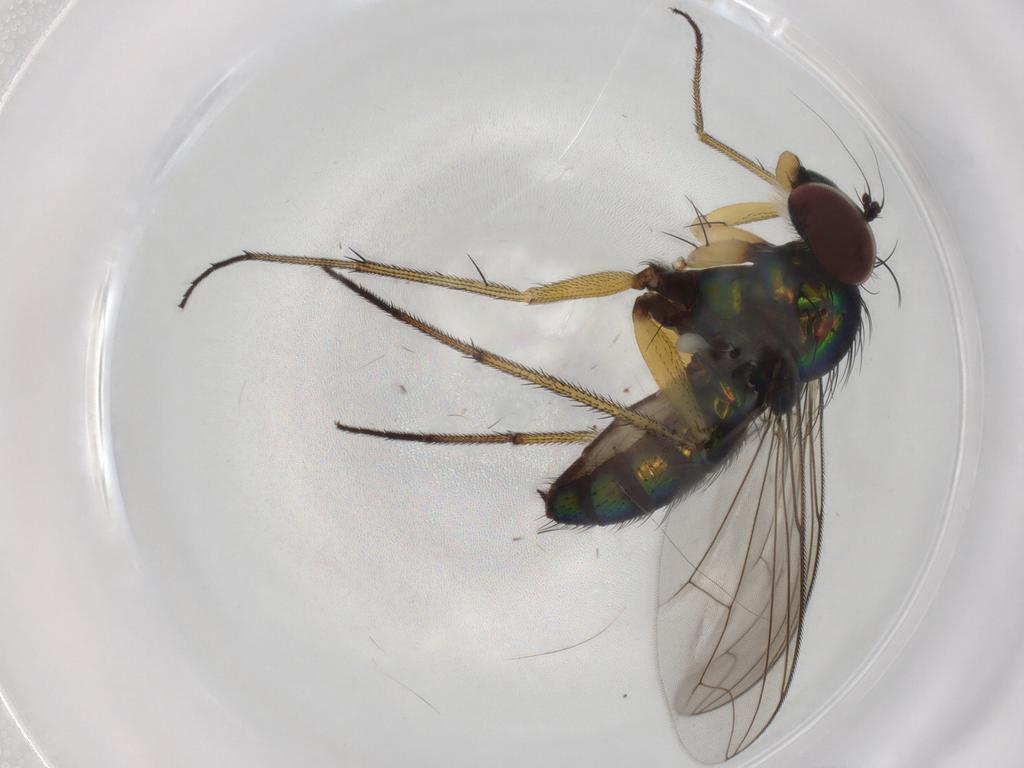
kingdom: Animalia
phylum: Arthropoda
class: Insecta
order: Diptera
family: Dolichopodidae
